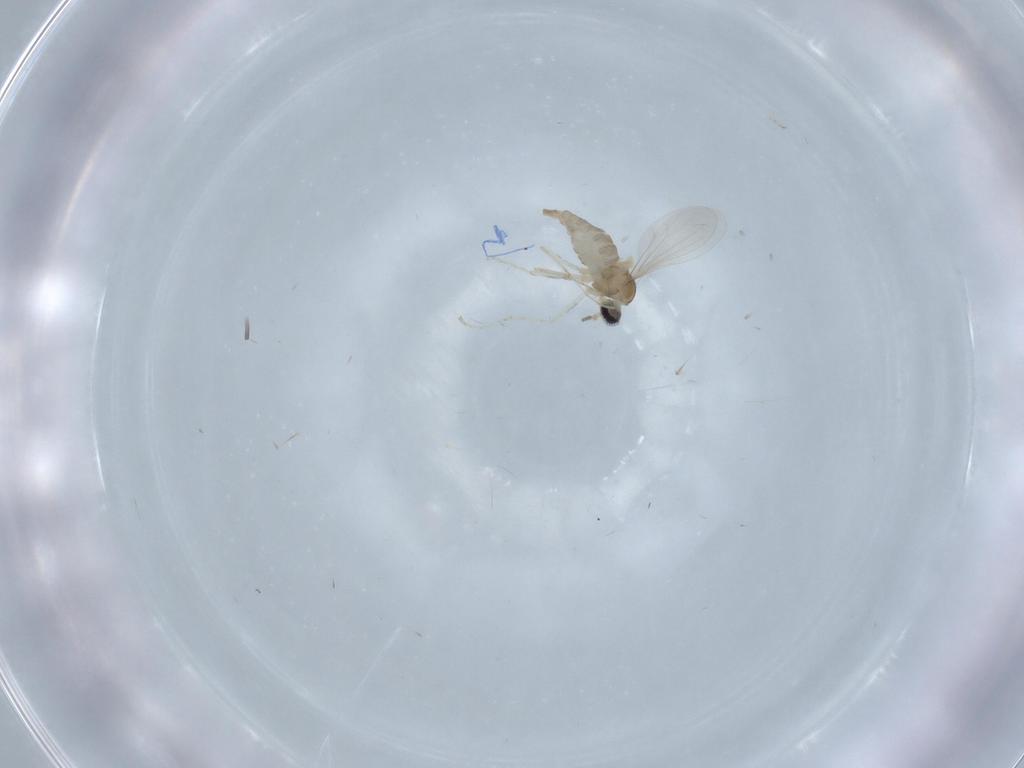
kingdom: Animalia
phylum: Arthropoda
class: Insecta
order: Diptera
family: Cecidomyiidae
